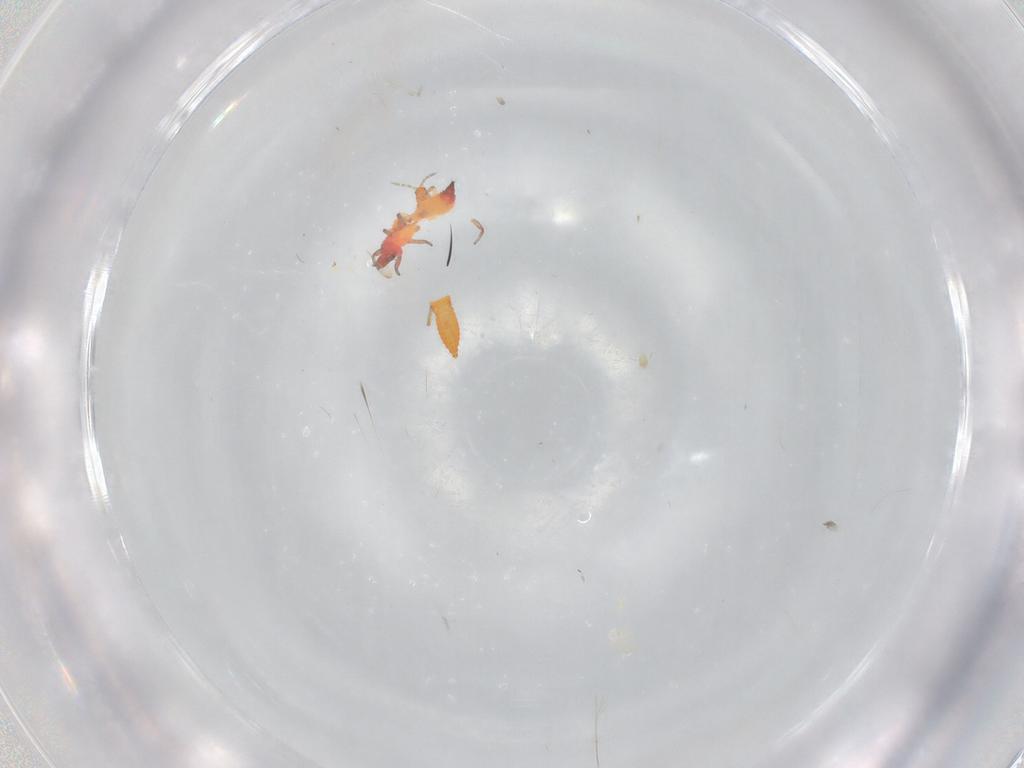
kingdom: Animalia
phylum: Arthropoda
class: Insecta
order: Thysanoptera
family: Phlaeothripidae
